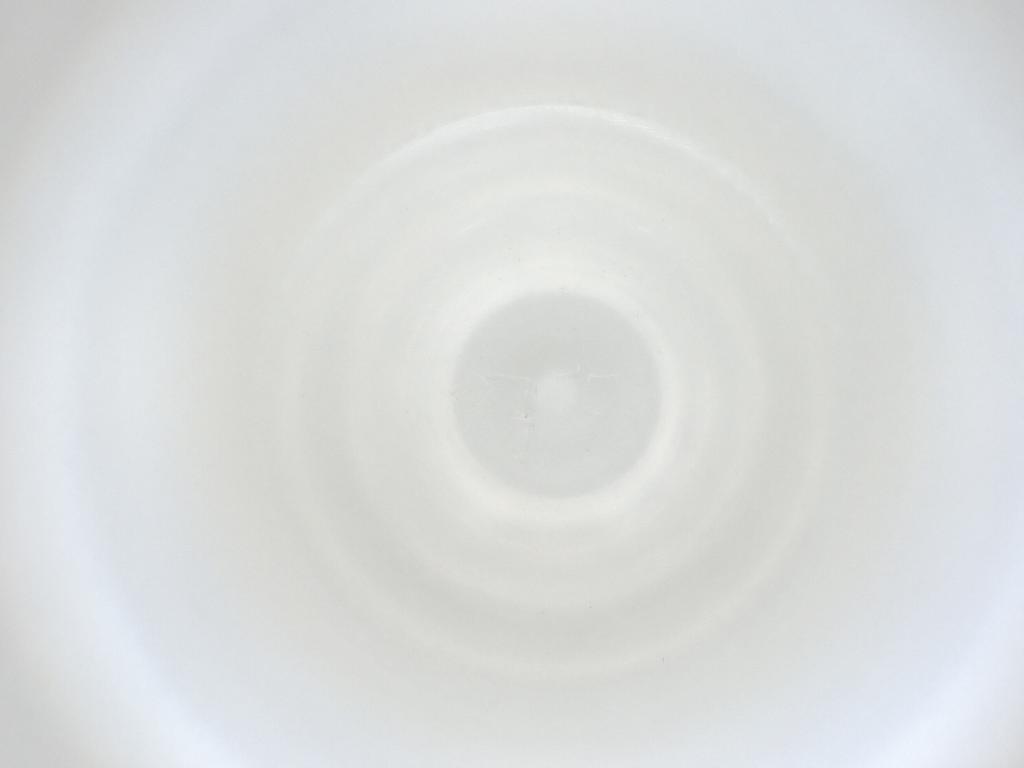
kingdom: Animalia
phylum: Arthropoda
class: Insecta
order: Diptera
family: Cecidomyiidae
